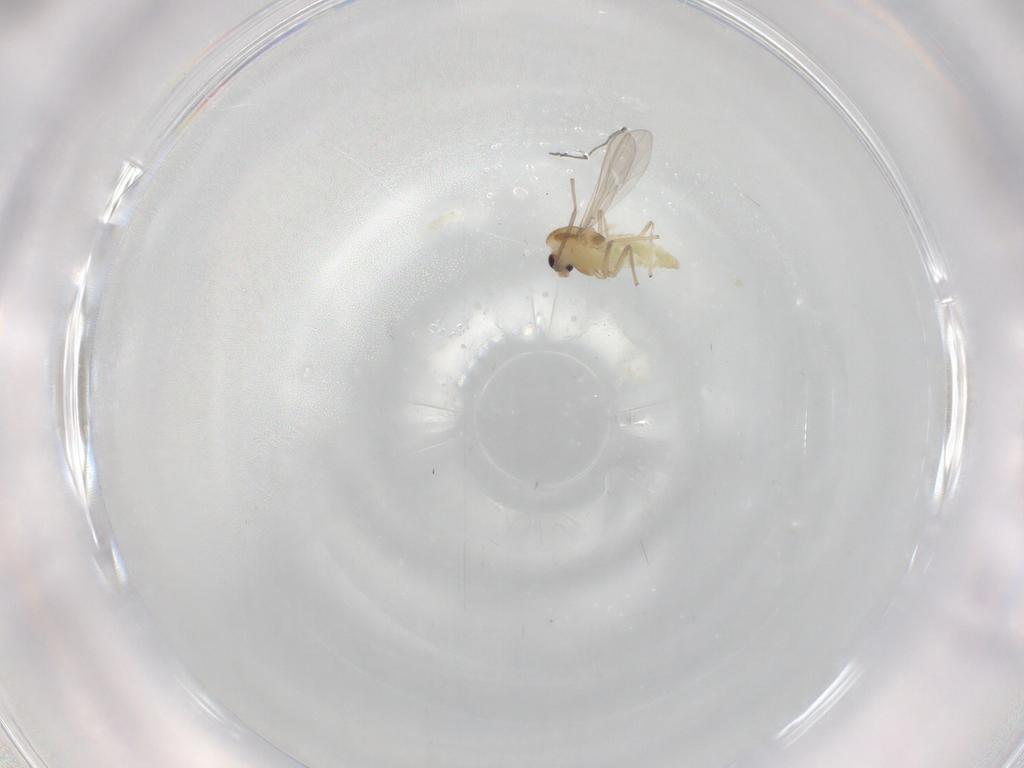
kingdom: Animalia
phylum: Arthropoda
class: Insecta
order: Diptera
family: Chironomidae
